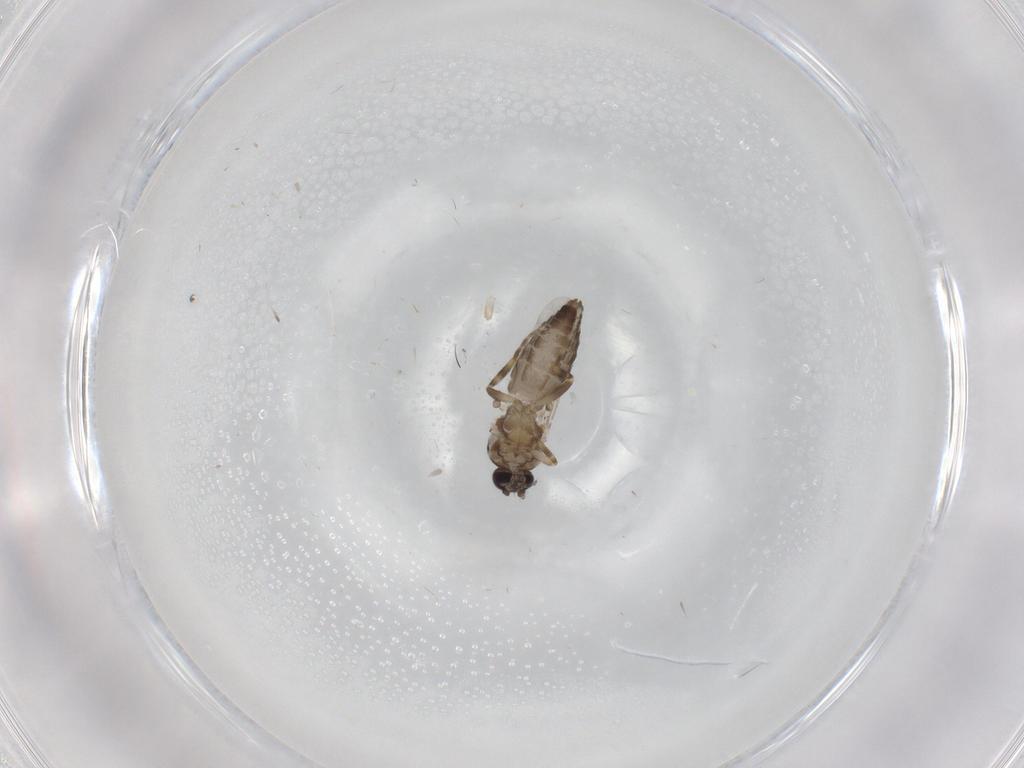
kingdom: Animalia
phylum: Arthropoda
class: Insecta
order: Diptera
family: Ceratopogonidae
